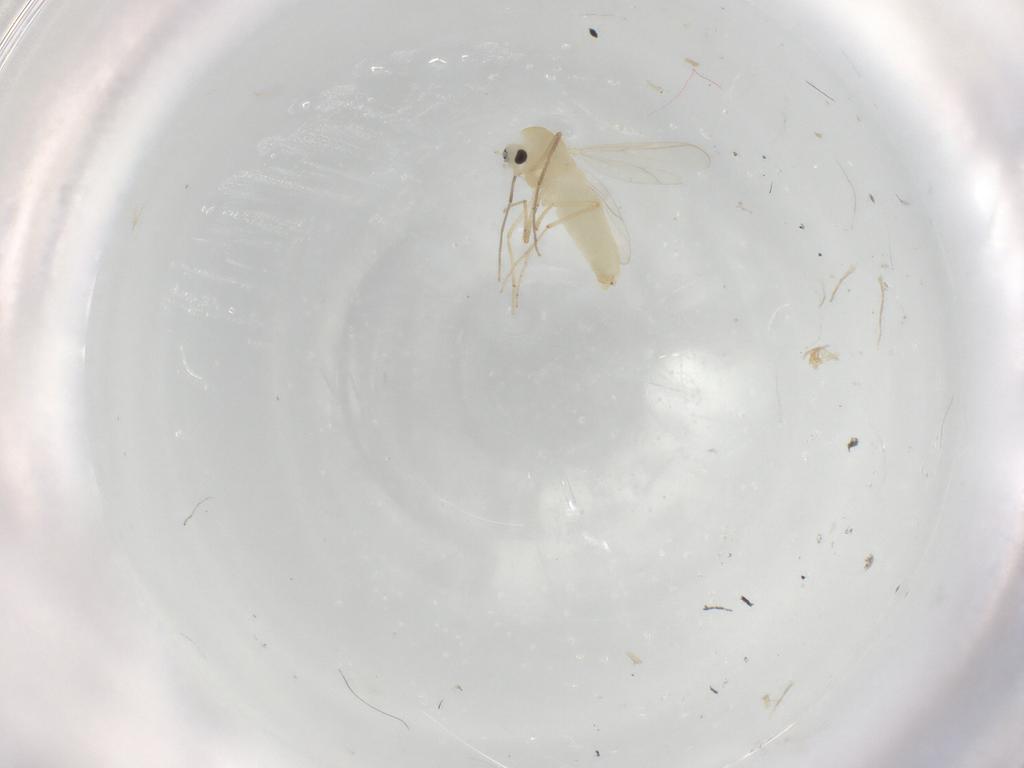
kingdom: Animalia
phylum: Arthropoda
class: Insecta
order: Diptera
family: Chironomidae
